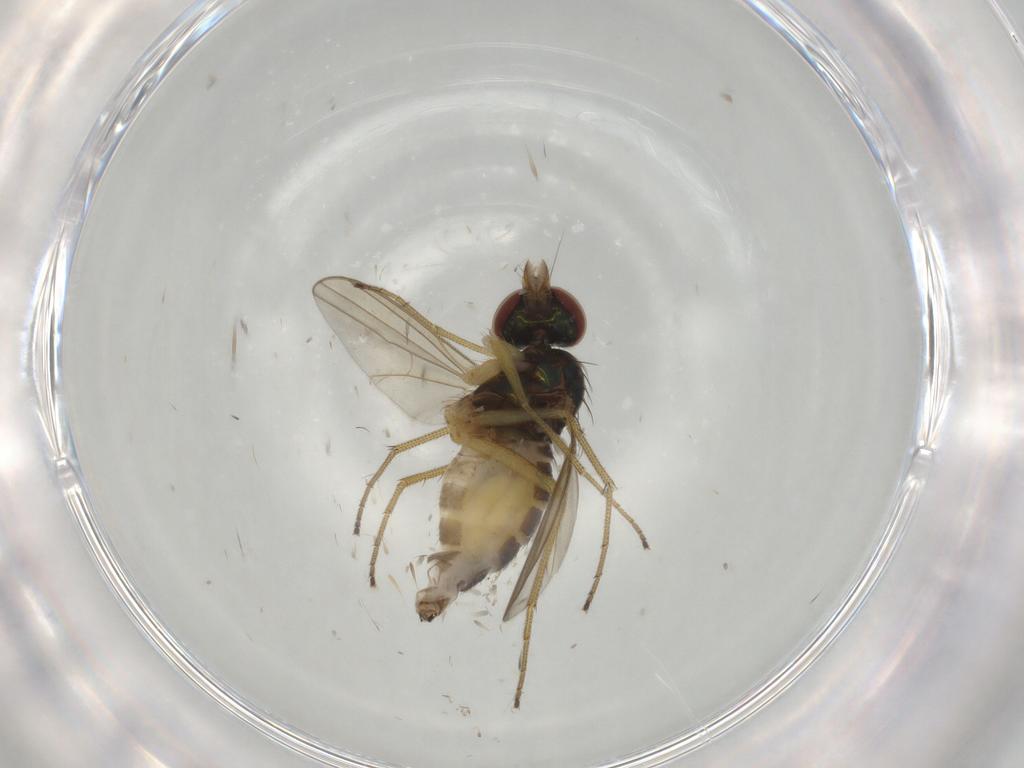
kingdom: Animalia
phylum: Arthropoda
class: Insecta
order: Diptera
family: Dolichopodidae
